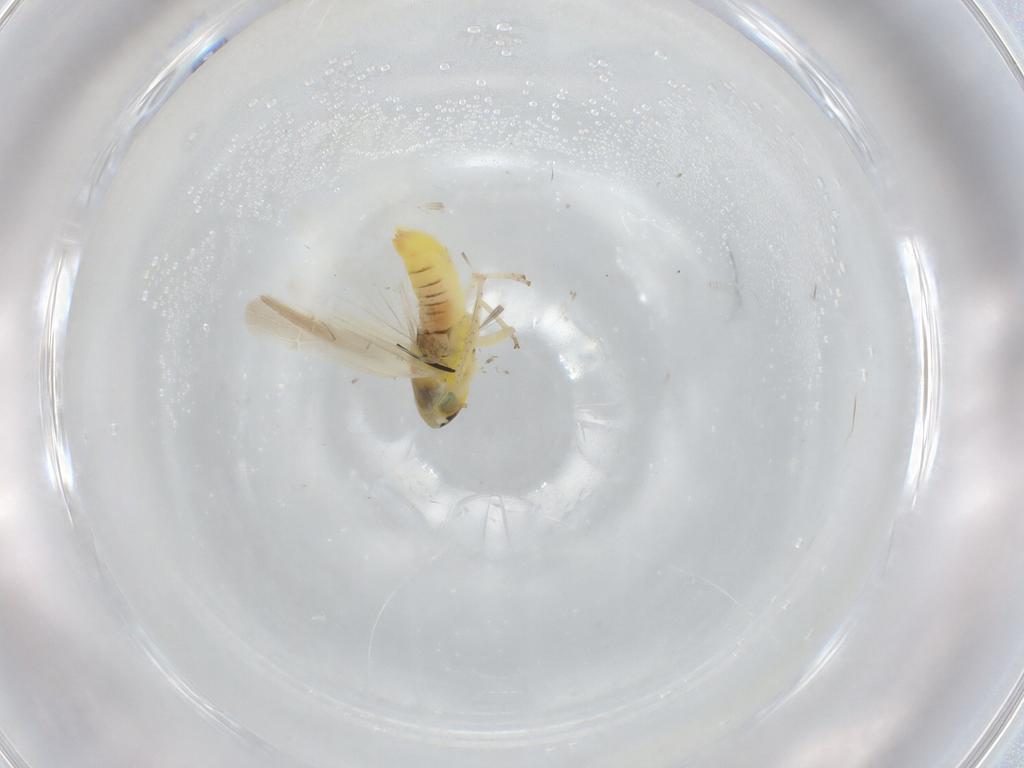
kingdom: Animalia
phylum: Arthropoda
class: Insecta
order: Hemiptera
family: Cicadellidae
